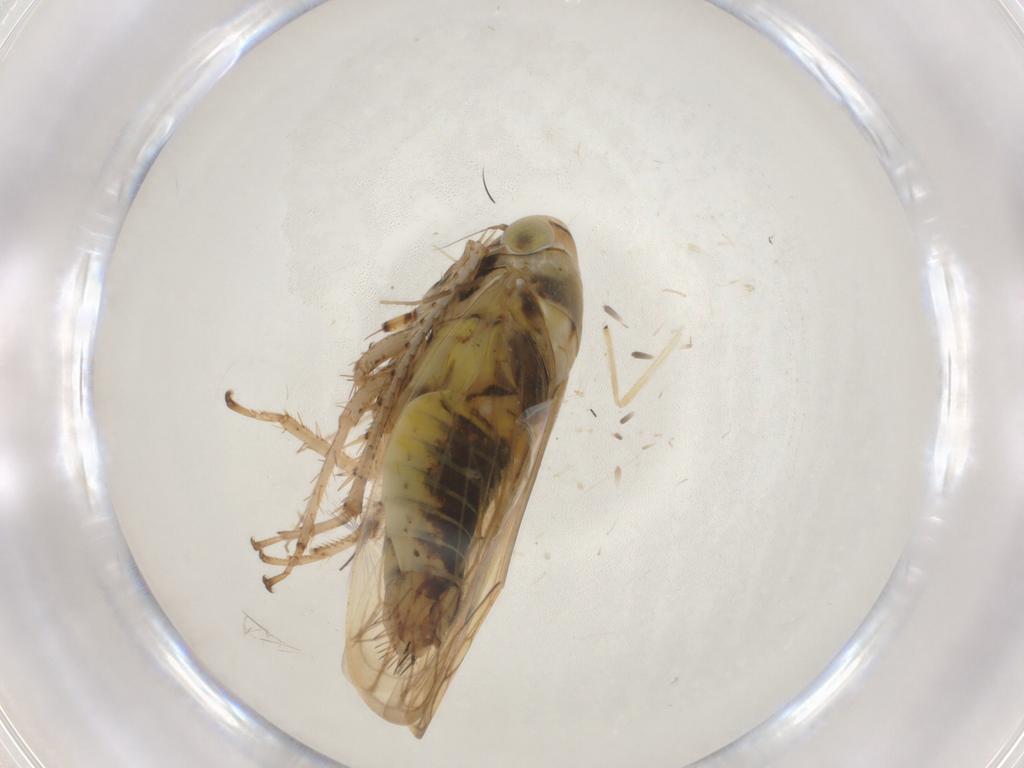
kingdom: Animalia
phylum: Arthropoda
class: Insecta
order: Hemiptera
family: Cicadellidae
